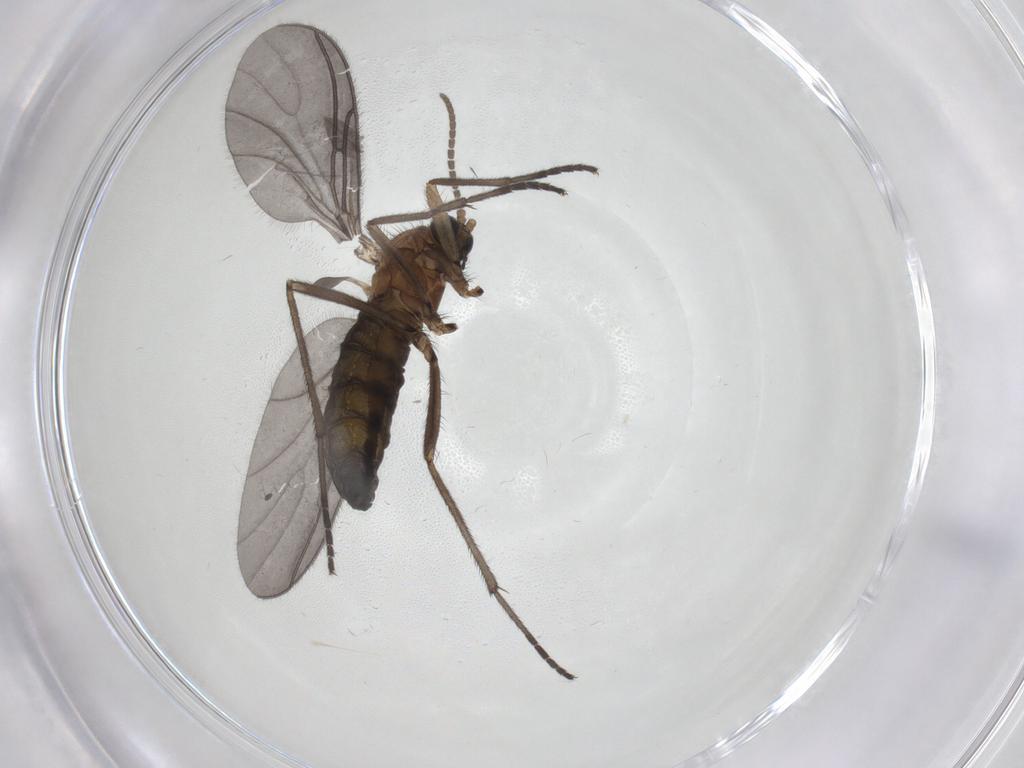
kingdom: Animalia
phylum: Arthropoda
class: Insecta
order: Diptera
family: Limoniidae
